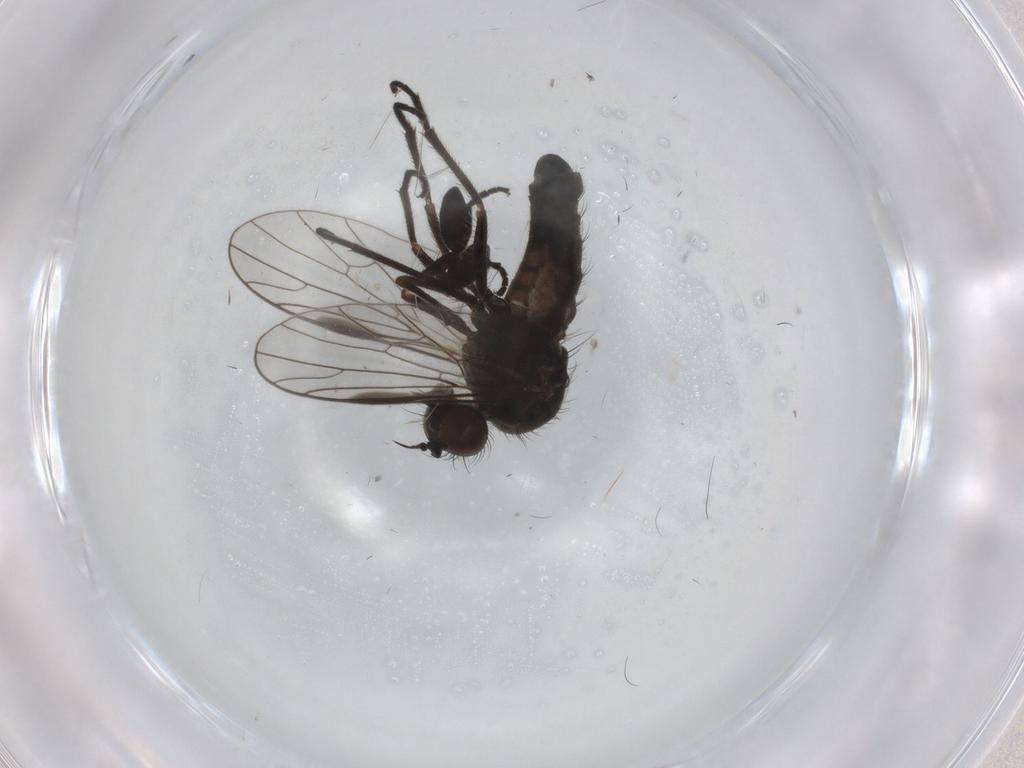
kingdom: Animalia
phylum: Arthropoda
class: Insecta
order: Diptera
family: Empididae
